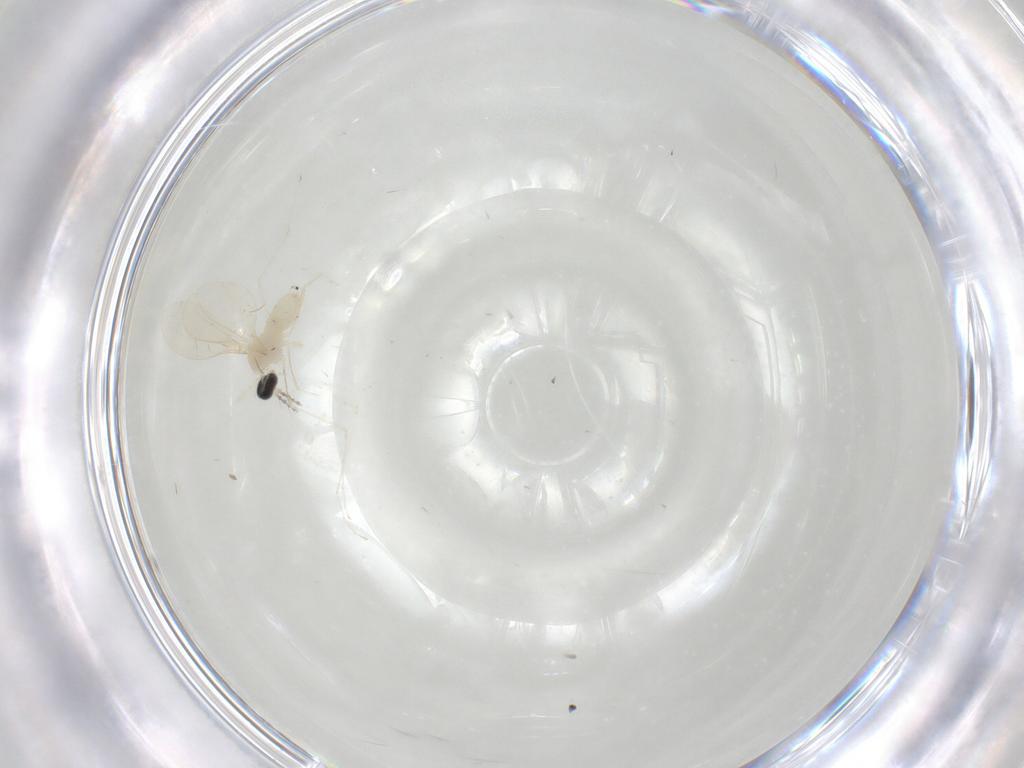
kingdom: Animalia
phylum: Arthropoda
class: Insecta
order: Diptera
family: Cecidomyiidae
